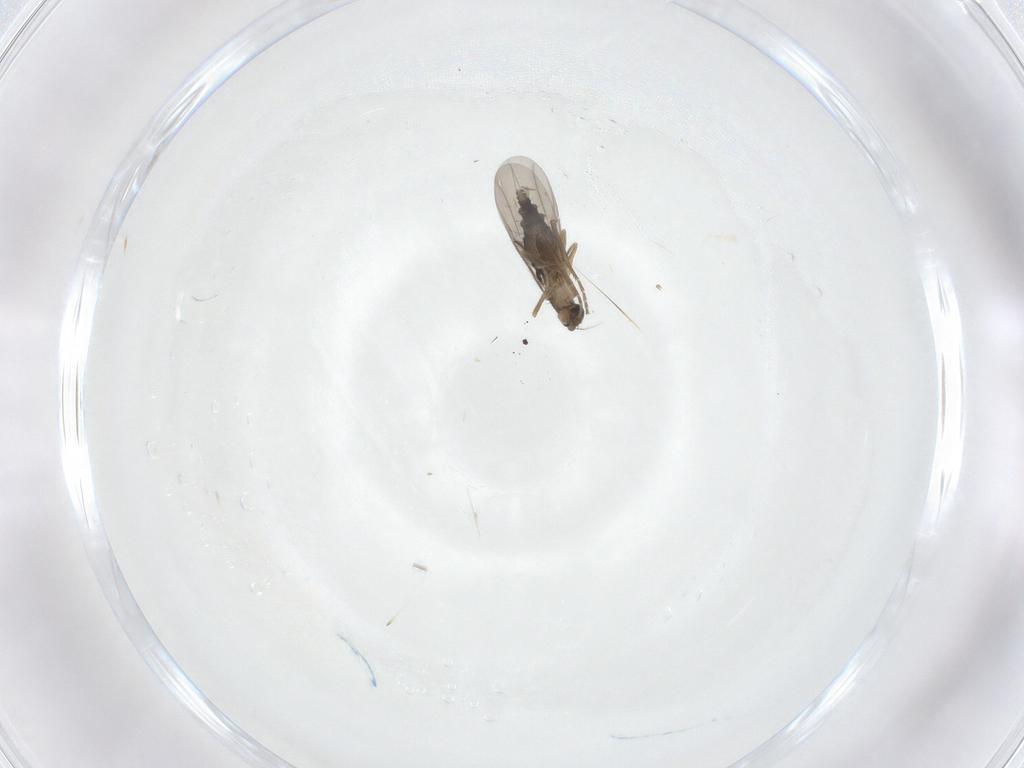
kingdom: Animalia
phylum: Arthropoda
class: Insecta
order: Diptera
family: Phoridae
